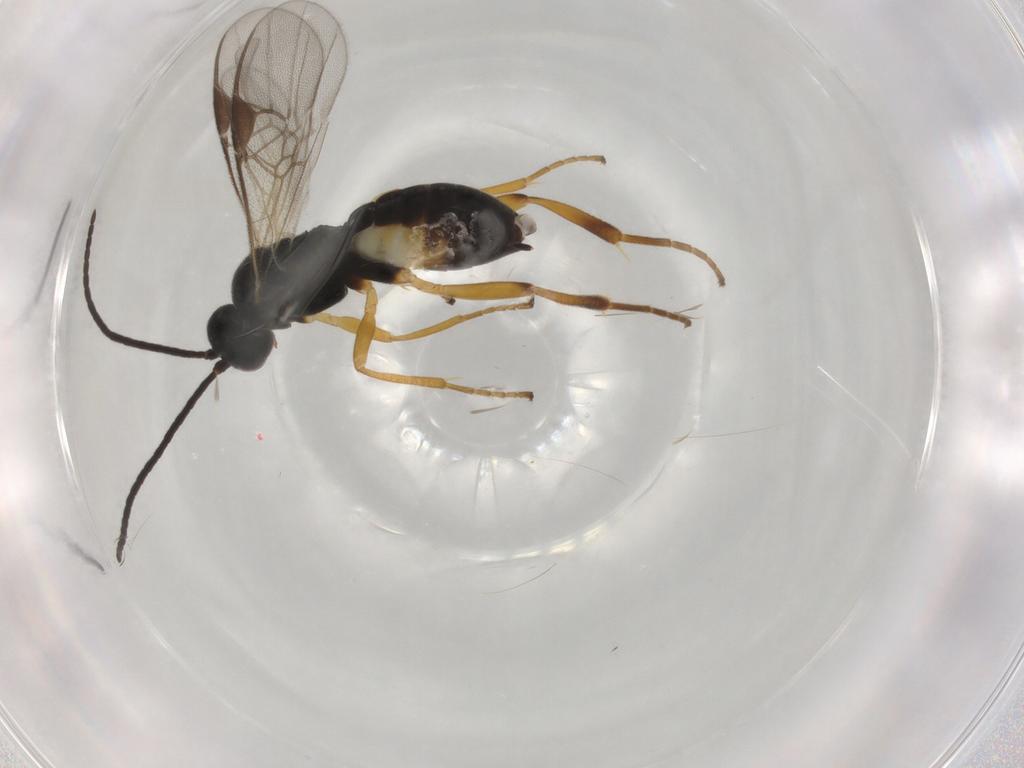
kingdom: Animalia
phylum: Arthropoda
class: Insecta
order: Hymenoptera
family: Braconidae
